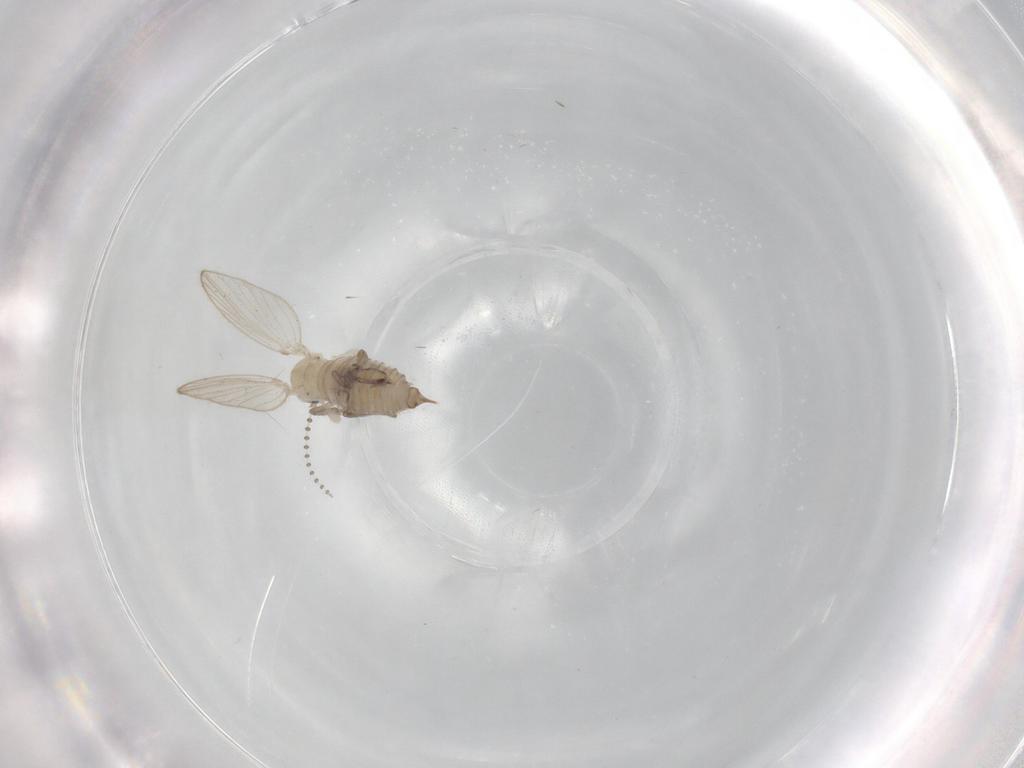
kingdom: Animalia
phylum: Arthropoda
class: Insecta
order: Diptera
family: Psychodidae
